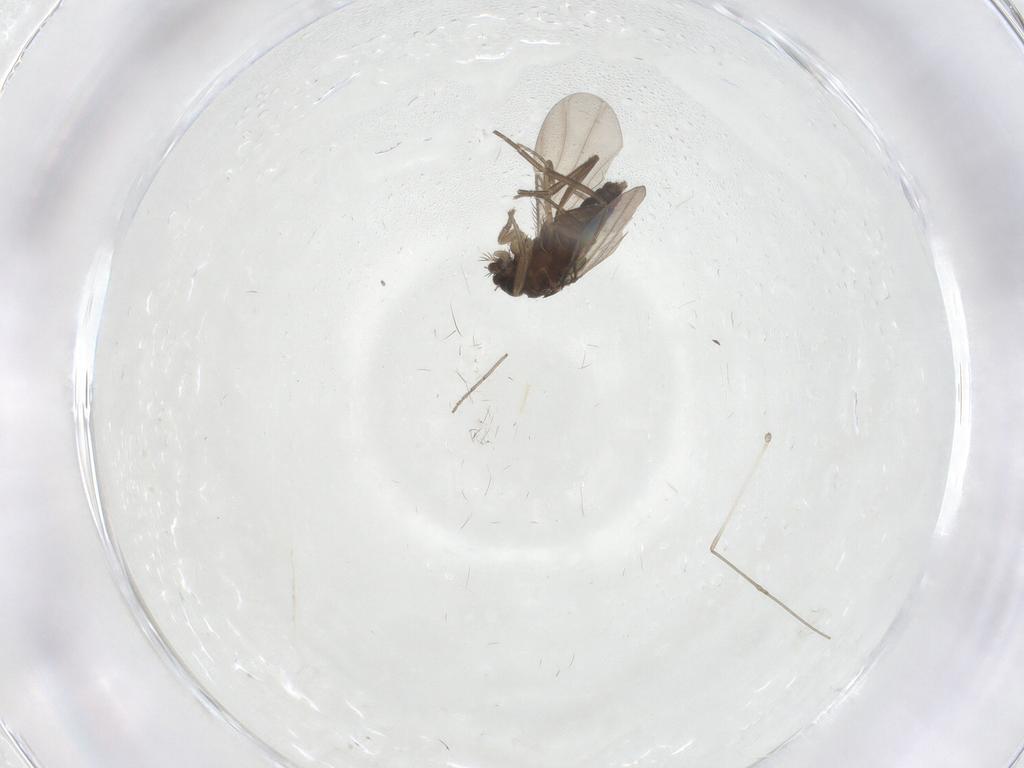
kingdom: Animalia
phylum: Arthropoda
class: Insecta
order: Diptera
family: Phoridae
